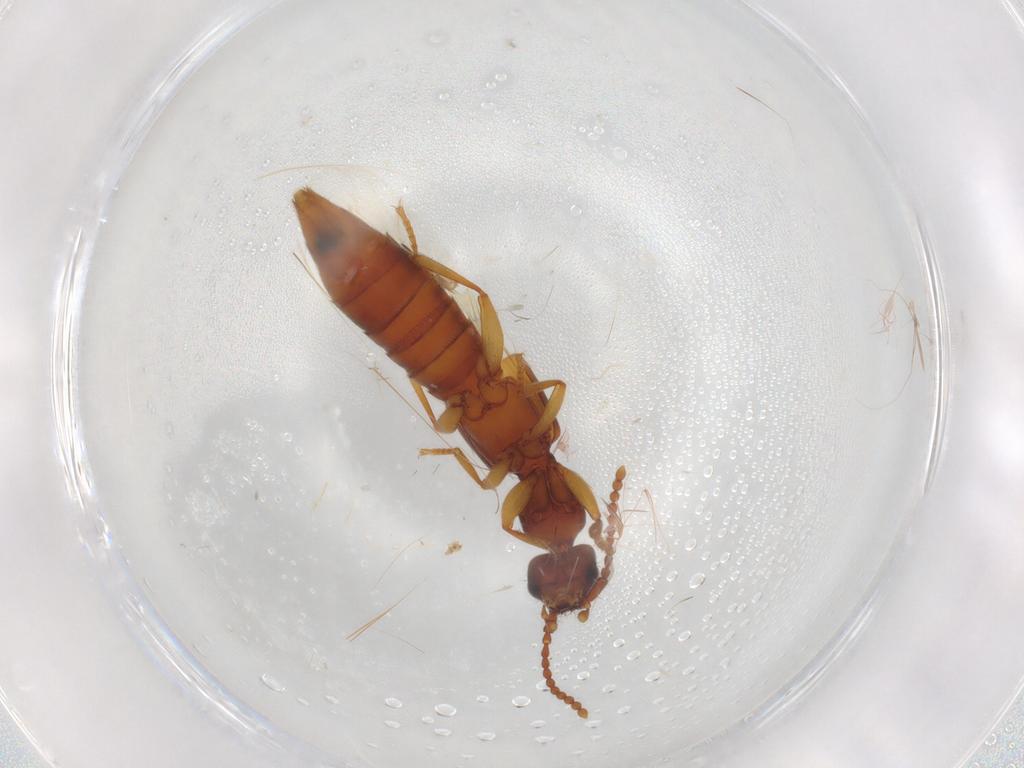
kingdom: Animalia
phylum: Arthropoda
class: Insecta
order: Coleoptera
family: Staphylinidae
